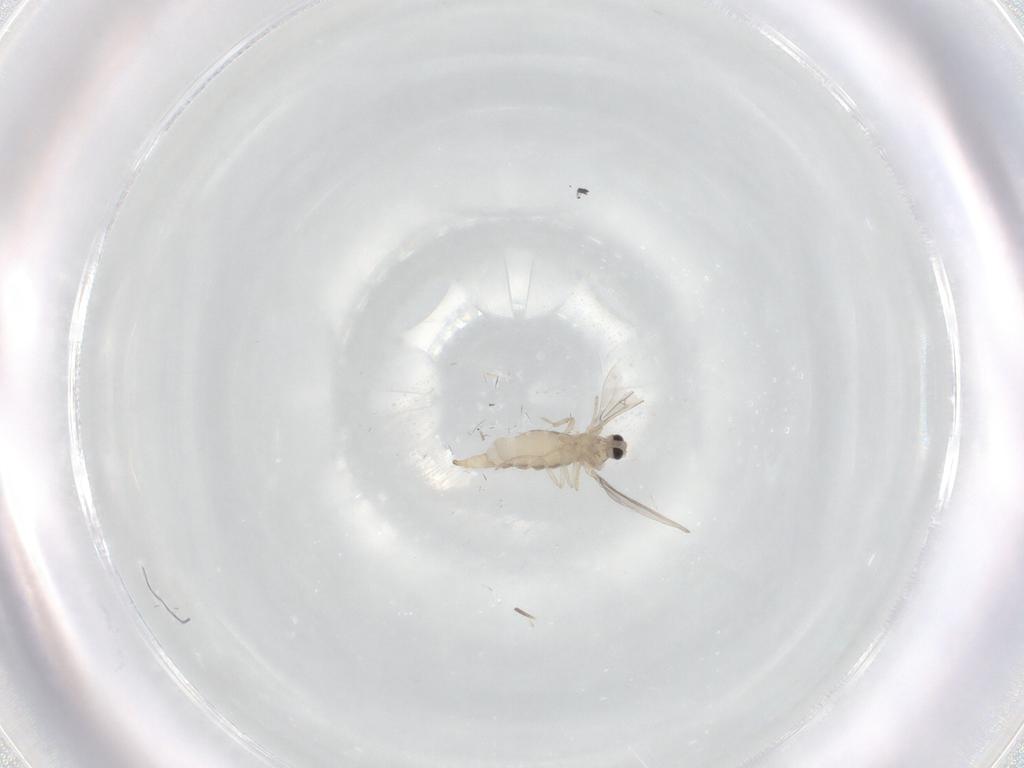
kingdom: Animalia
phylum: Arthropoda
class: Insecta
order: Diptera
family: Cecidomyiidae
